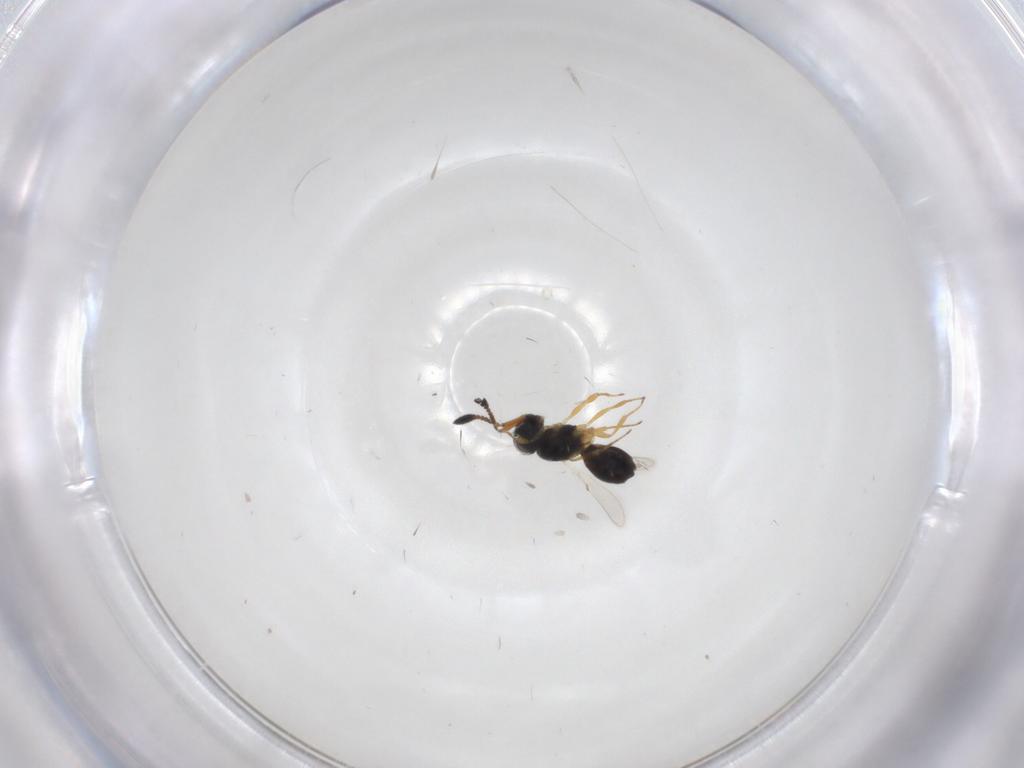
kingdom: Animalia
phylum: Arthropoda
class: Insecta
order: Hymenoptera
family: Scelionidae
